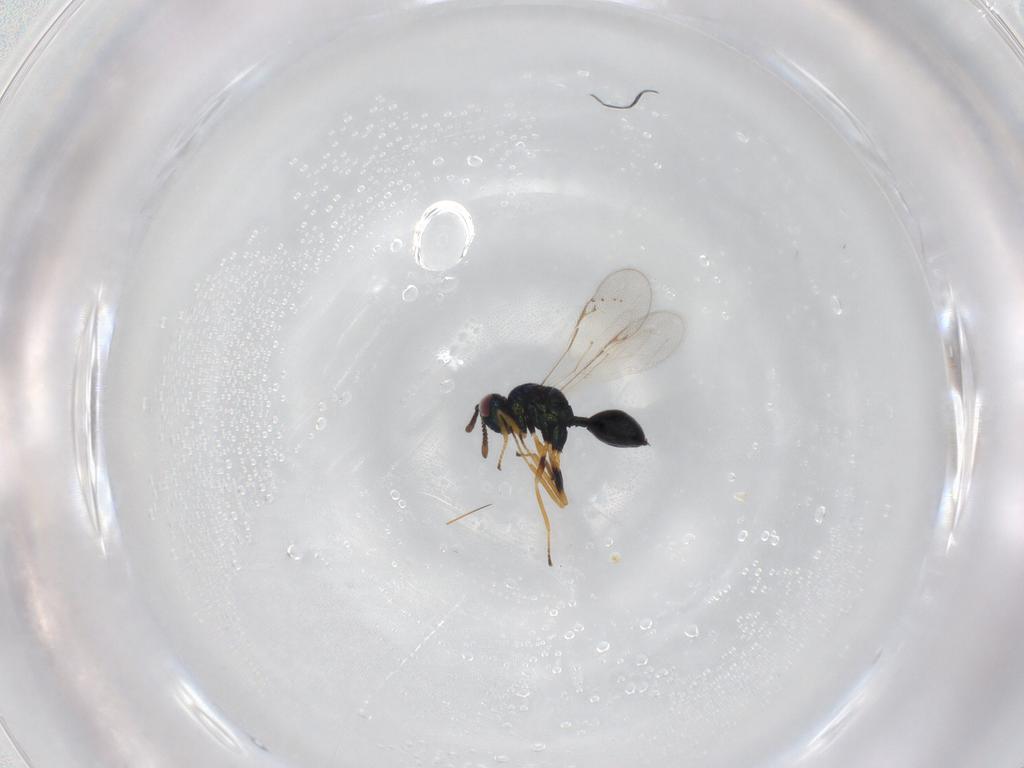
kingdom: Animalia
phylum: Arthropoda
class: Insecta
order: Hymenoptera
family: Chalcidoidea_incertae_sedis
